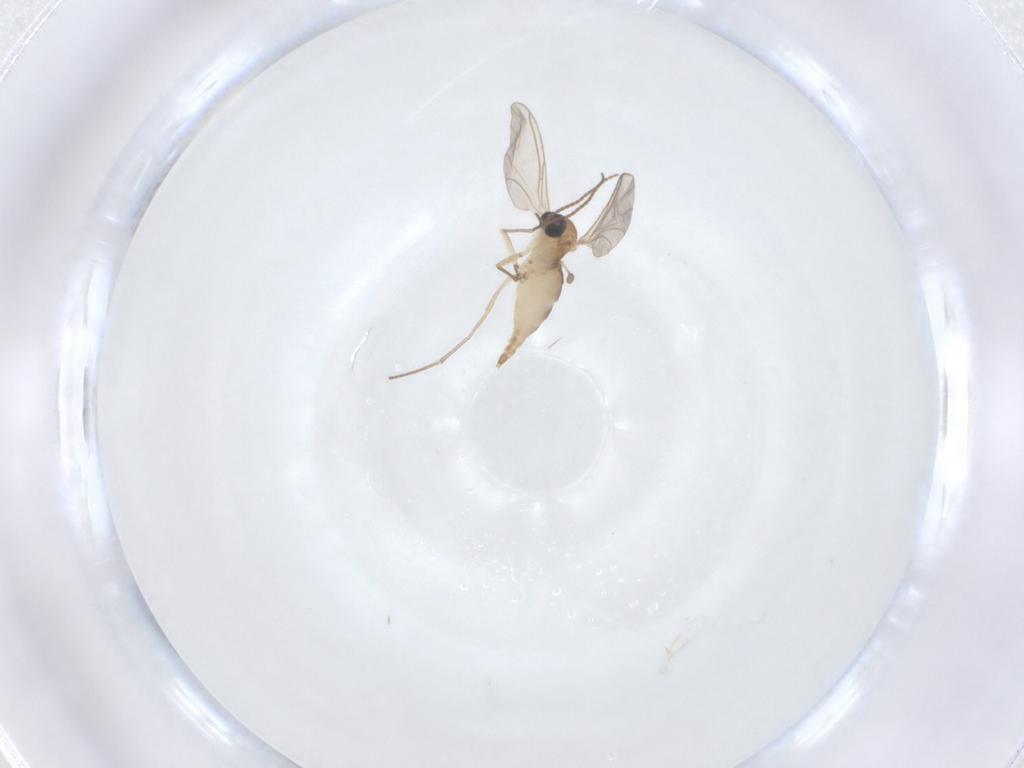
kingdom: Animalia
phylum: Arthropoda
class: Insecta
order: Diptera
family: Sciaridae
